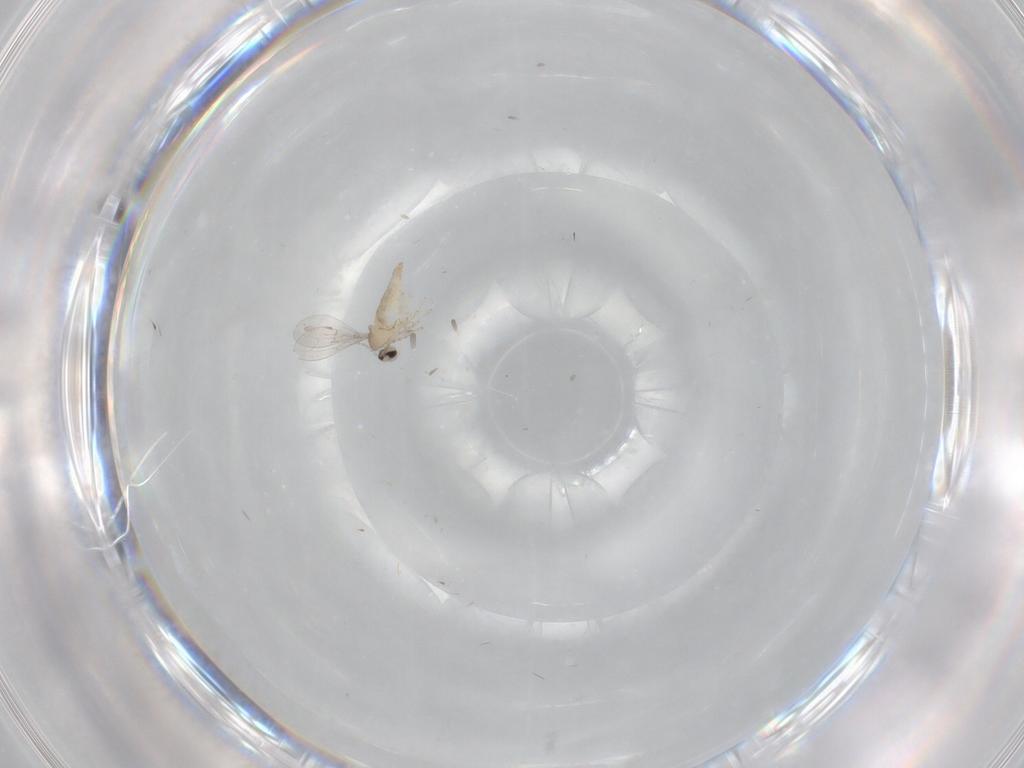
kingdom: Animalia
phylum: Arthropoda
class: Insecta
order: Diptera
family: Cecidomyiidae
